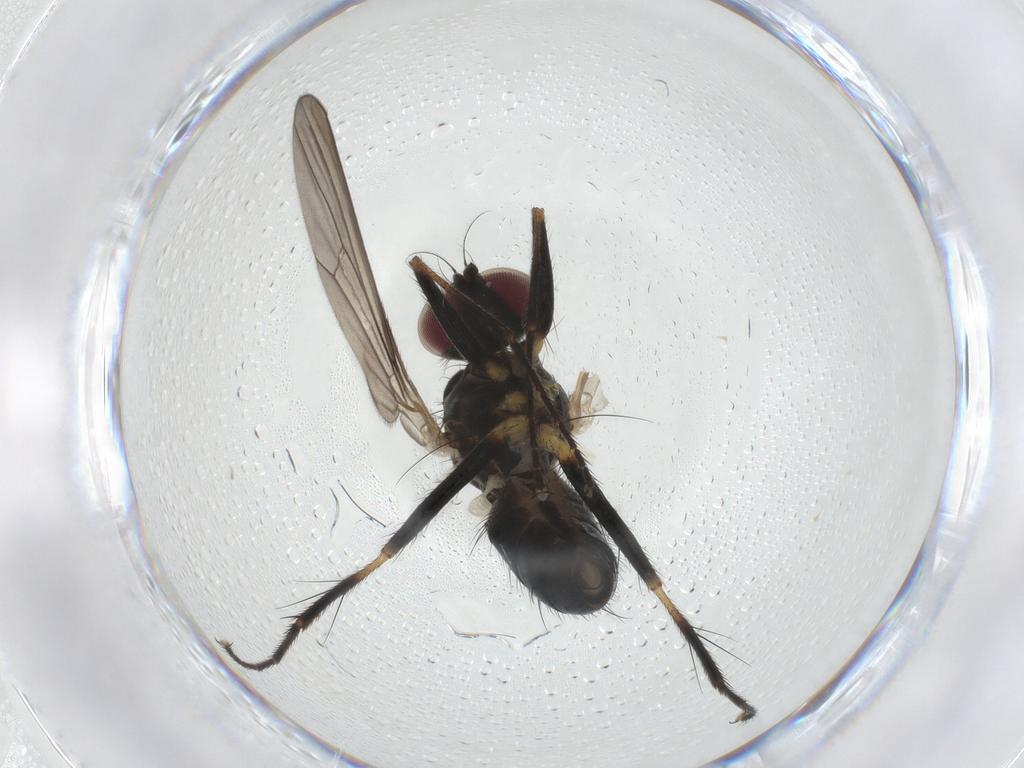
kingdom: Animalia
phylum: Arthropoda
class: Insecta
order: Diptera
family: Anthomyiidae
